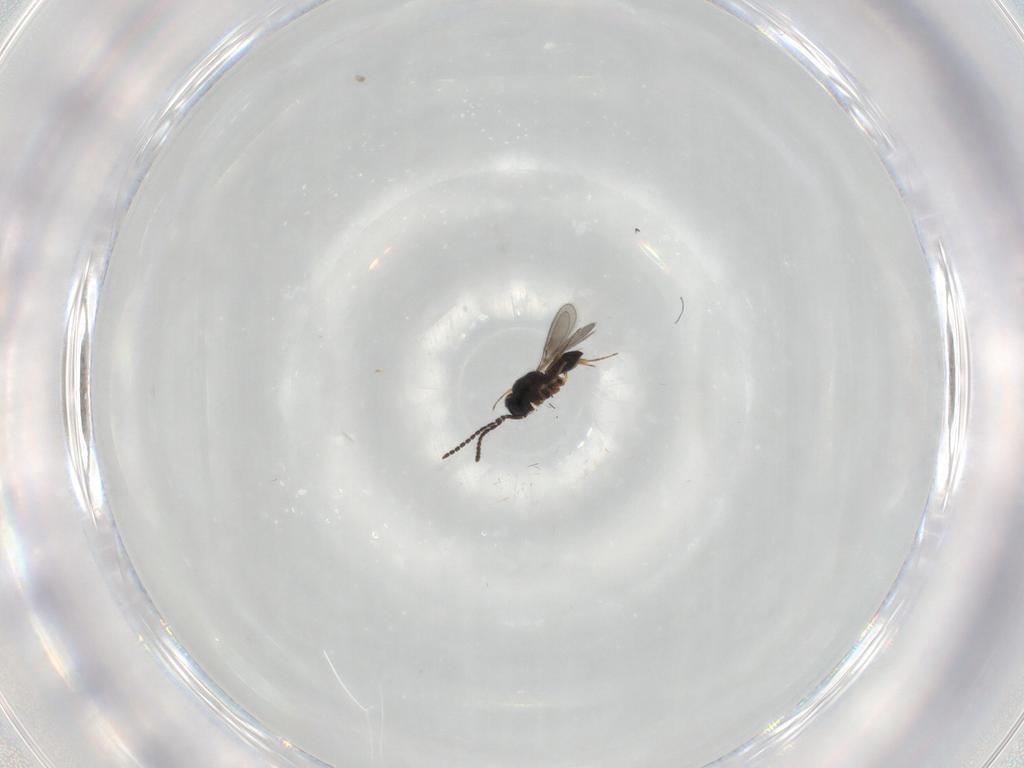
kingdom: Animalia
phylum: Arthropoda
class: Insecta
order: Hymenoptera
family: Scelionidae
